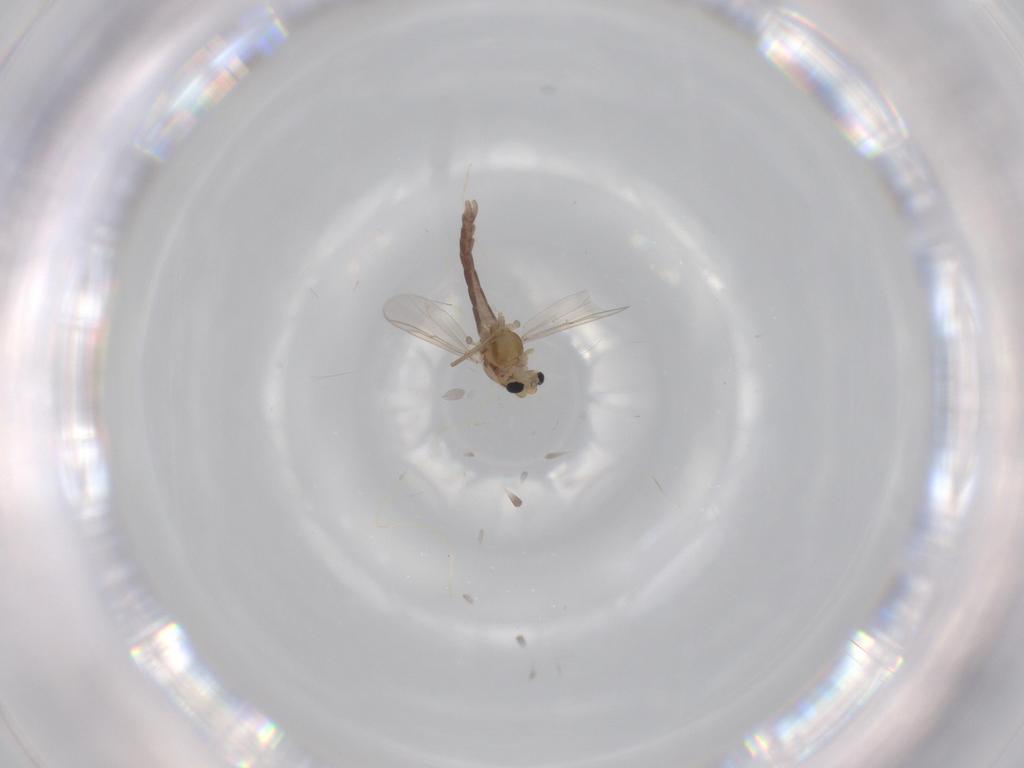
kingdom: Animalia
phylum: Arthropoda
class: Insecta
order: Diptera
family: Chironomidae
